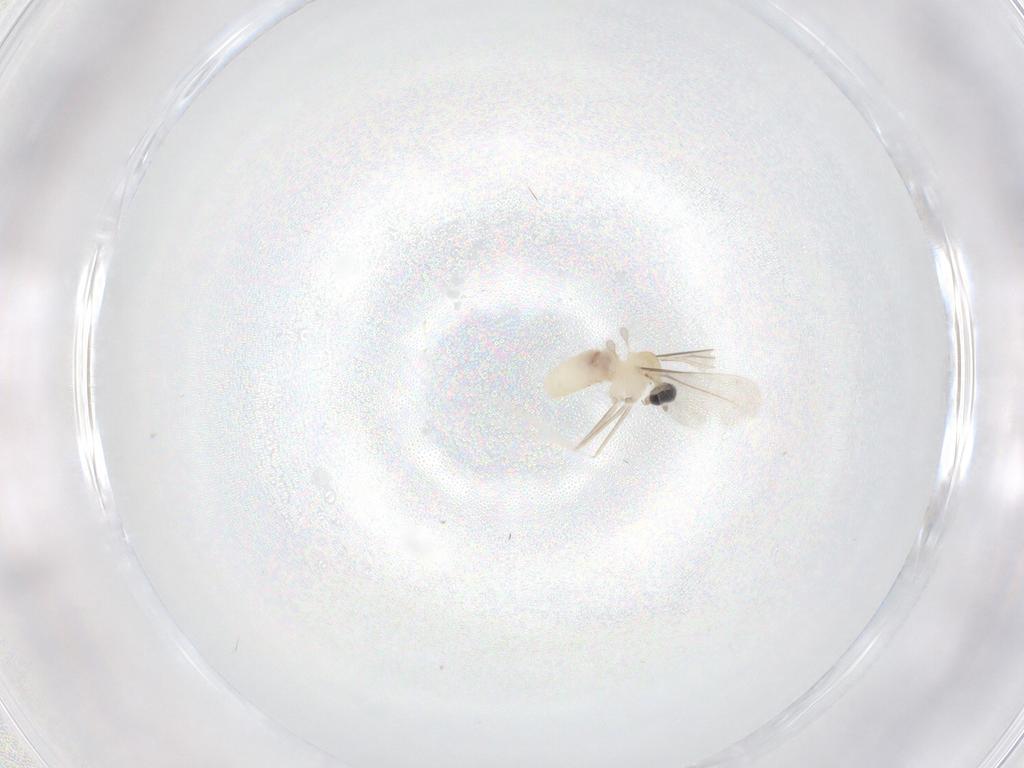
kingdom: Animalia
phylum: Arthropoda
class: Insecta
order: Diptera
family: Cecidomyiidae
